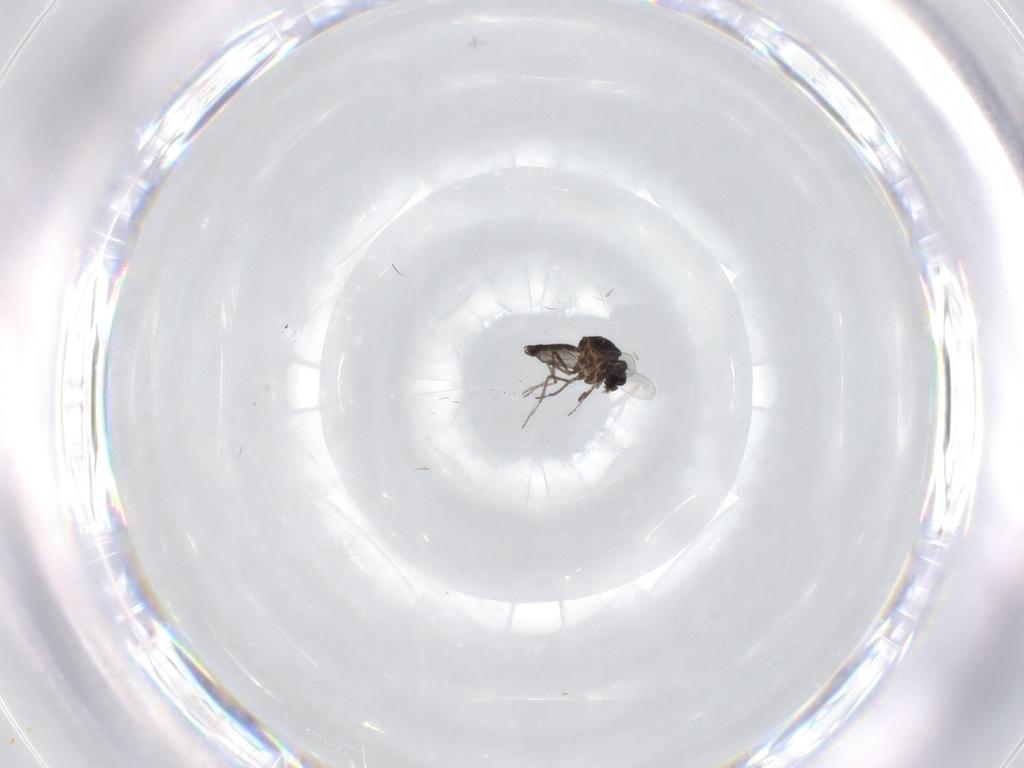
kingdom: Animalia
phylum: Arthropoda
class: Insecta
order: Diptera
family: Ceratopogonidae
